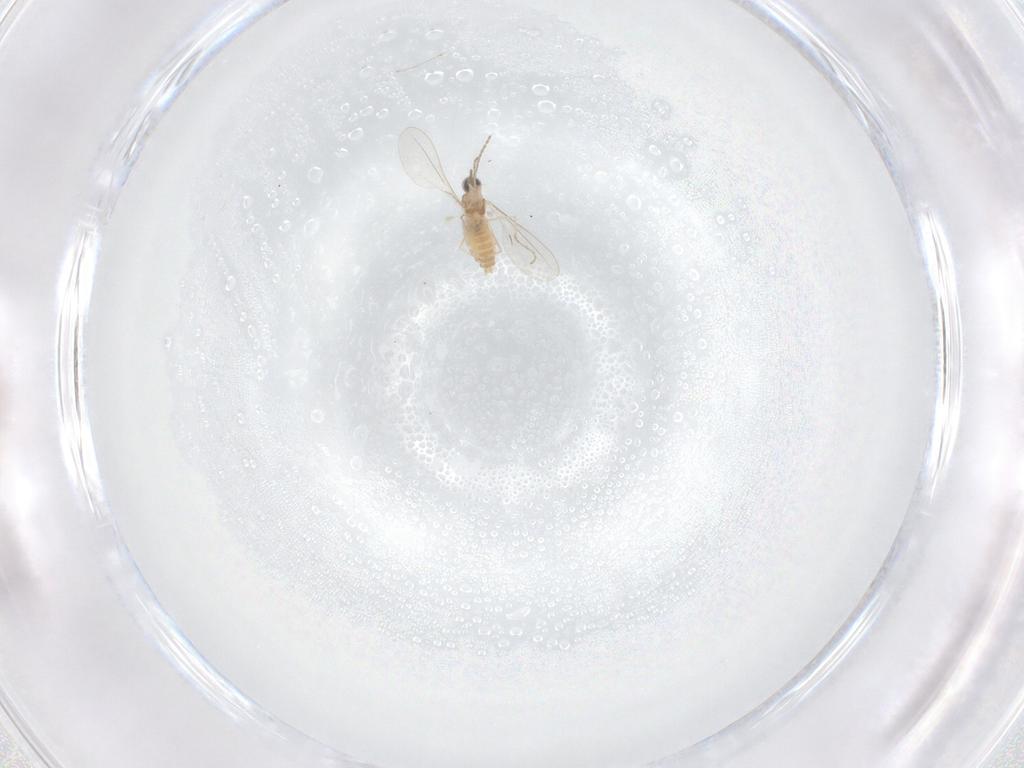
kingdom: Animalia
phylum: Arthropoda
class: Insecta
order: Diptera
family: Cecidomyiidae
